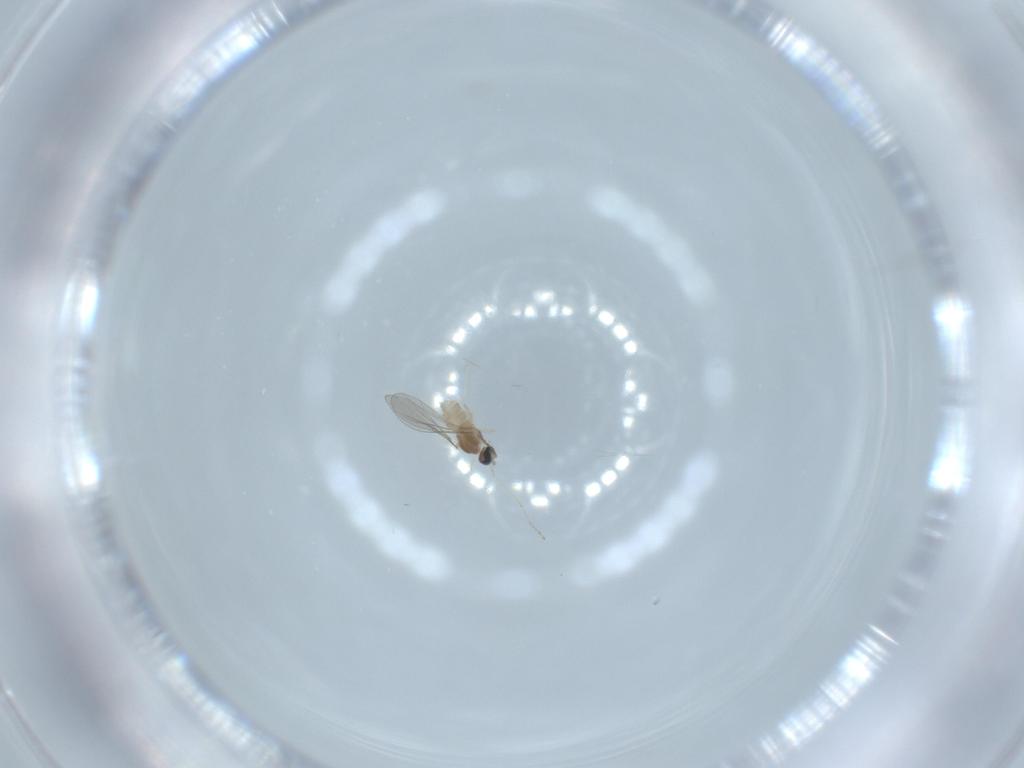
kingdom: Animalia
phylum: Arthropoda
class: Insecta
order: Diptera
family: Cecidomyiidae
